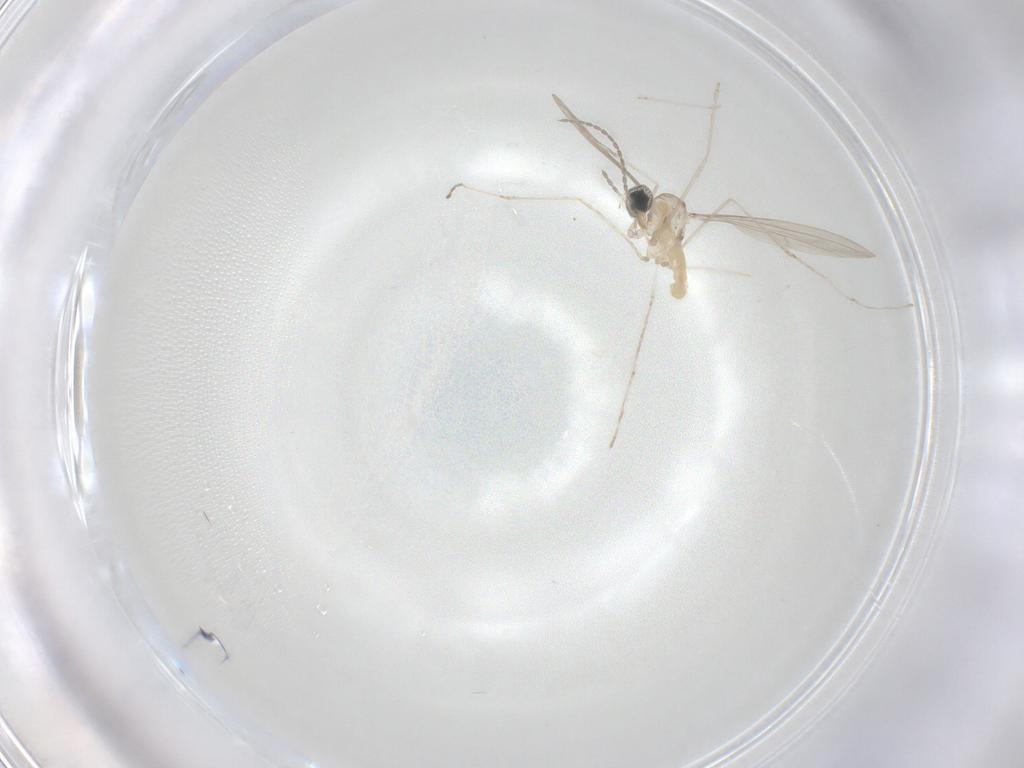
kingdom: Animalia
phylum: Arthropoda
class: Insecta
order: Diptera
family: Cecidomyiidae
